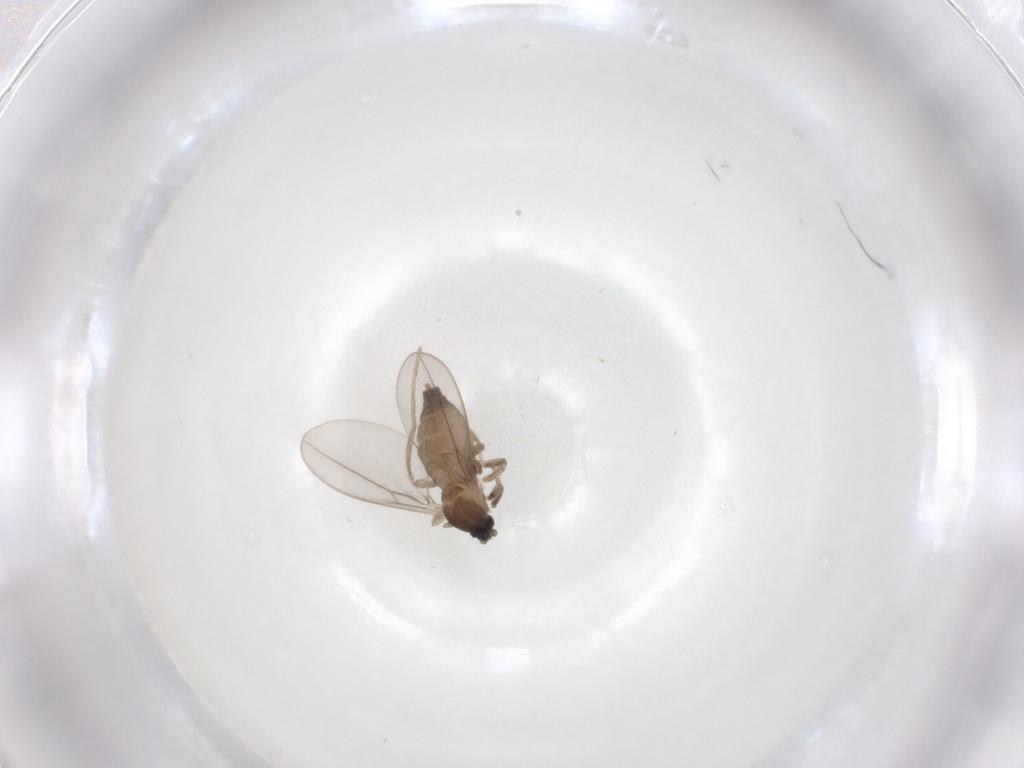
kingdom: Animalia
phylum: Arthropoda
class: Insecta
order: Diptera
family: Cecidomyiidae
